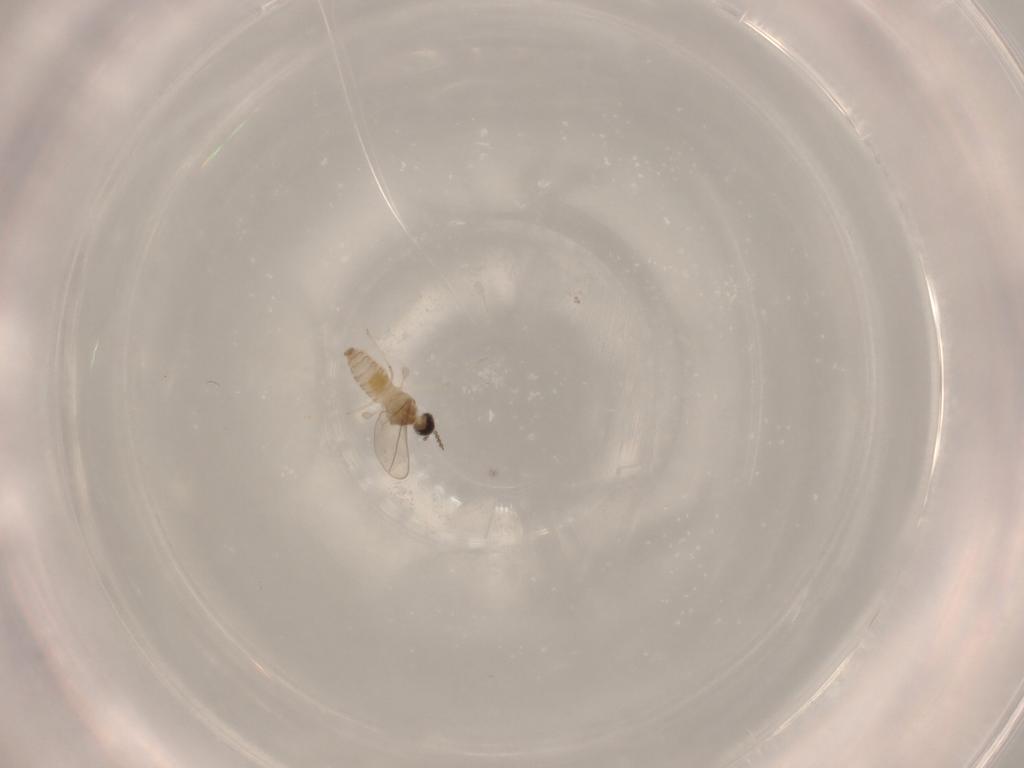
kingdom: Animalia
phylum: Arthropoda
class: Insecta
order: Diptera
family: Cecidomyiidae
